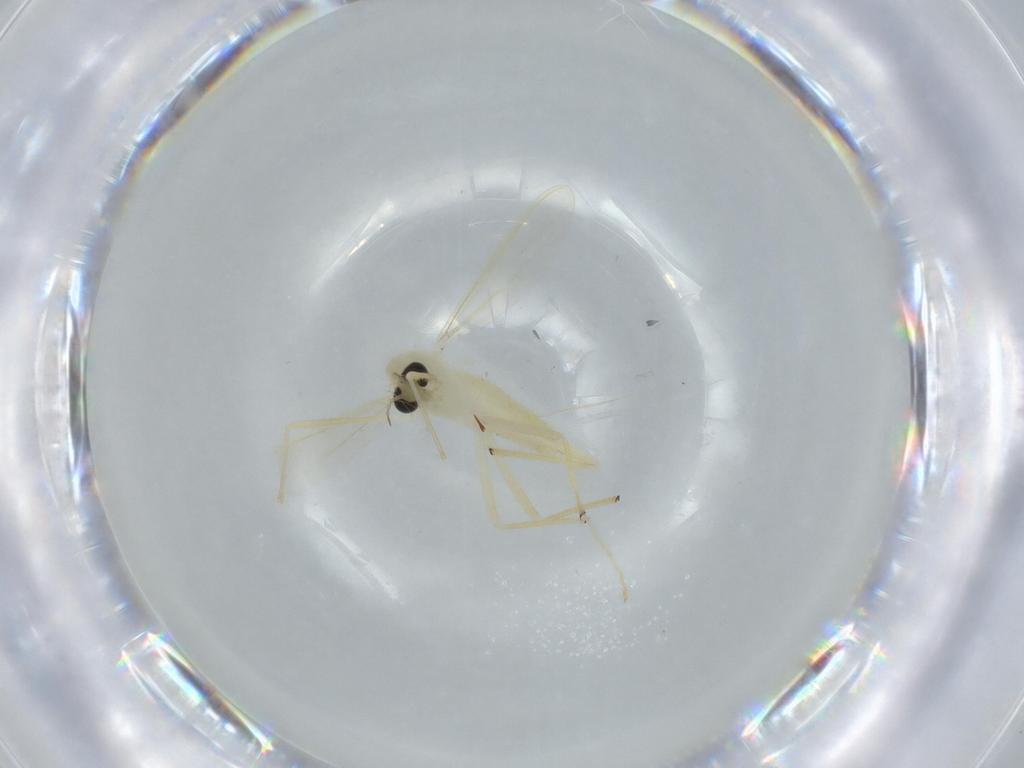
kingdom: Animalia
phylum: Arthropoda
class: Insecta
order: Diptera
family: Chironomidae
